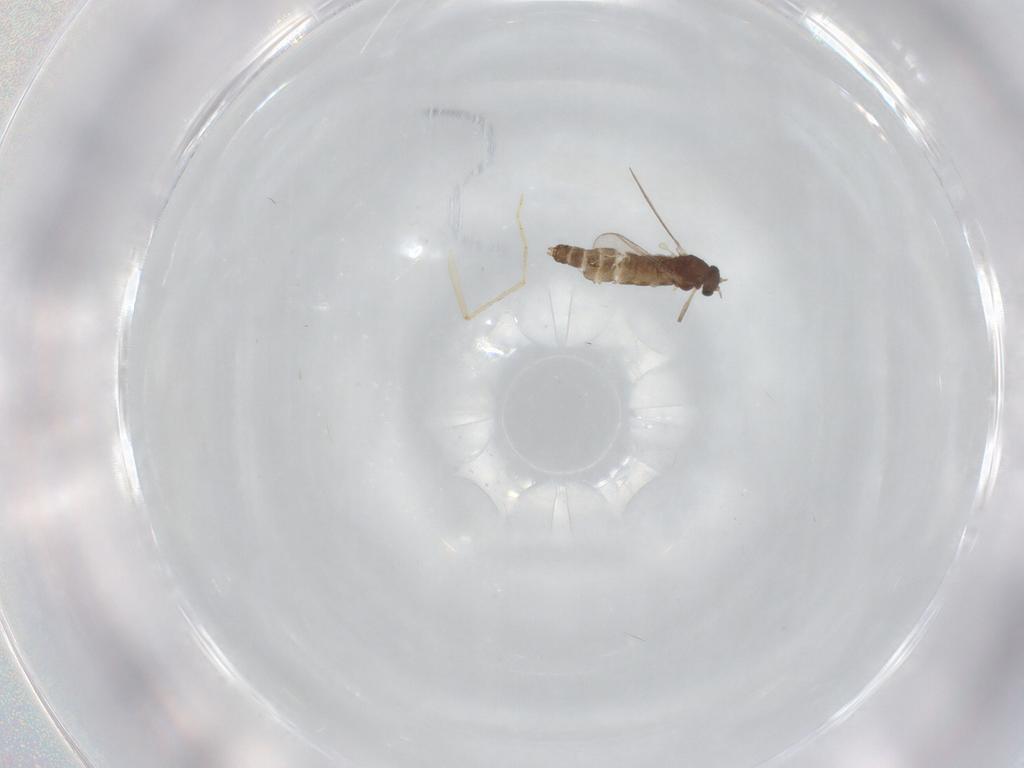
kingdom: Animalia
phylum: Arthropoda
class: Insecta
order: Diptera
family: Chironomidae
